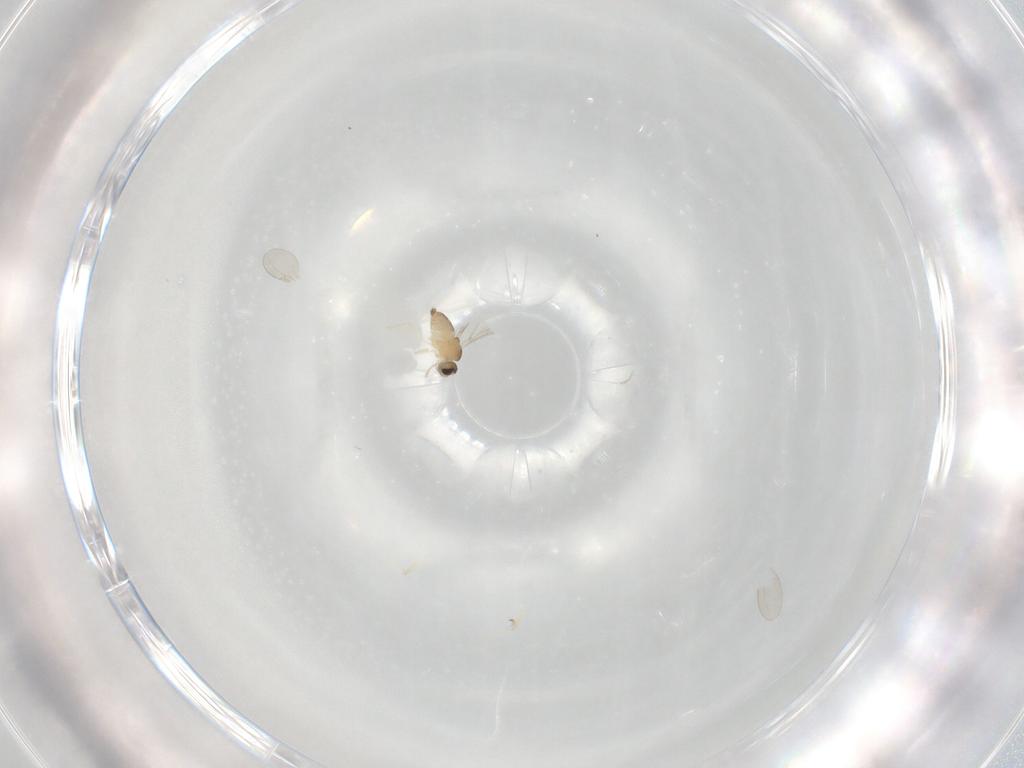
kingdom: Animalia
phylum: Arthropoda
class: Insecta
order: Diptera
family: Cecidomyiidae
